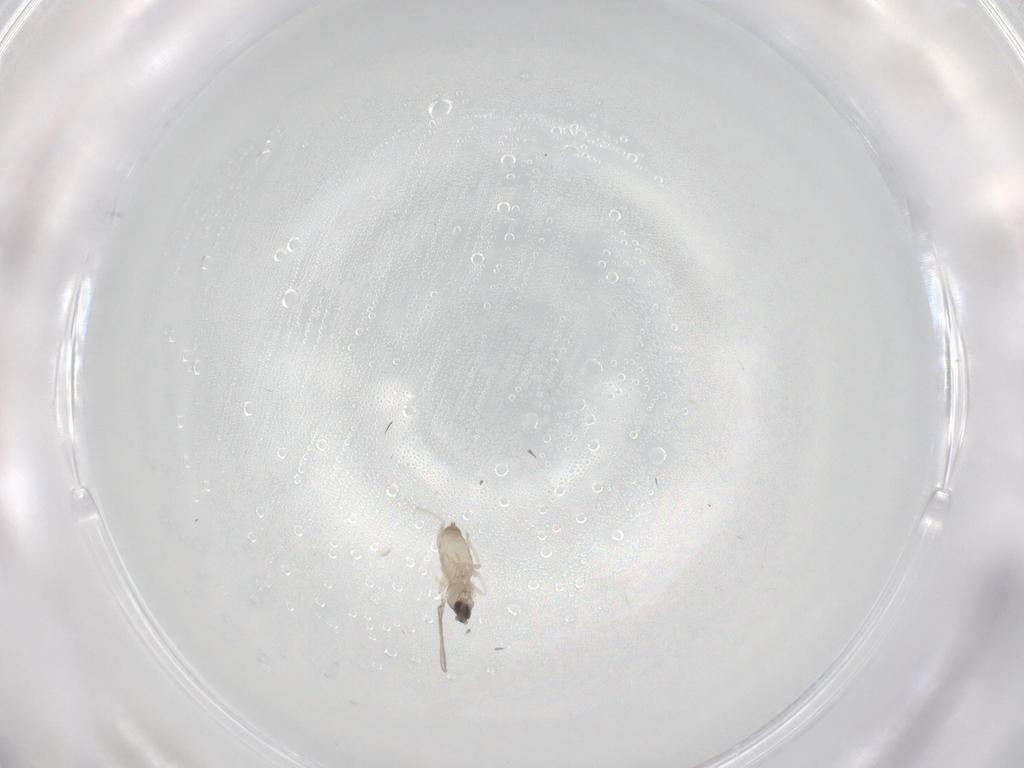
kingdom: Animalia
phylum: Arthropoda
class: Insecta
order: Diptera
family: Phoridae
